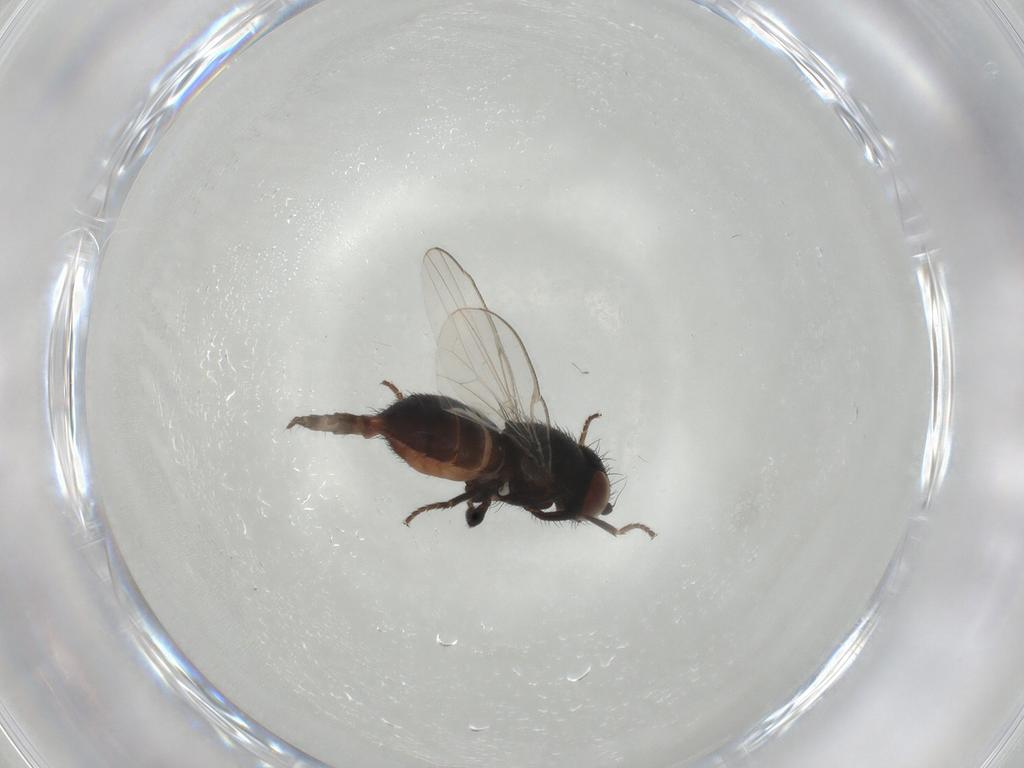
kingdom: Animalia
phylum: Arthropoda
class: Insecta
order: Diptera
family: Milichiidae
